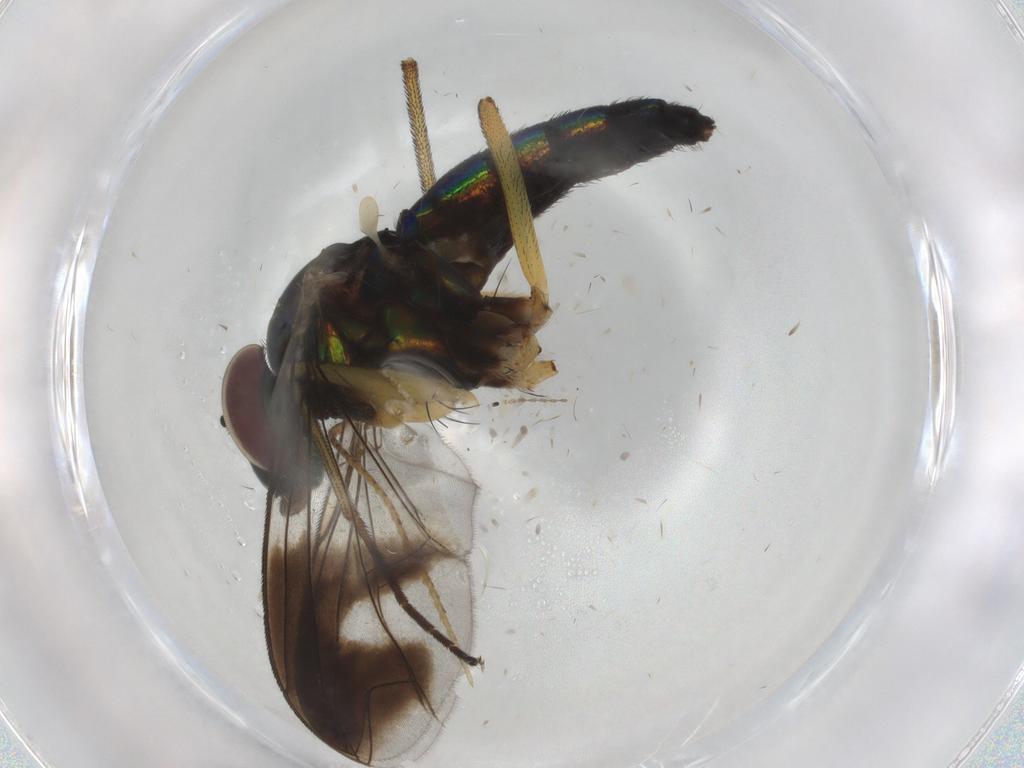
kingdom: Animalia
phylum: Arthropoda
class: Insecta
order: Diptera
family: Dolichopodidae
